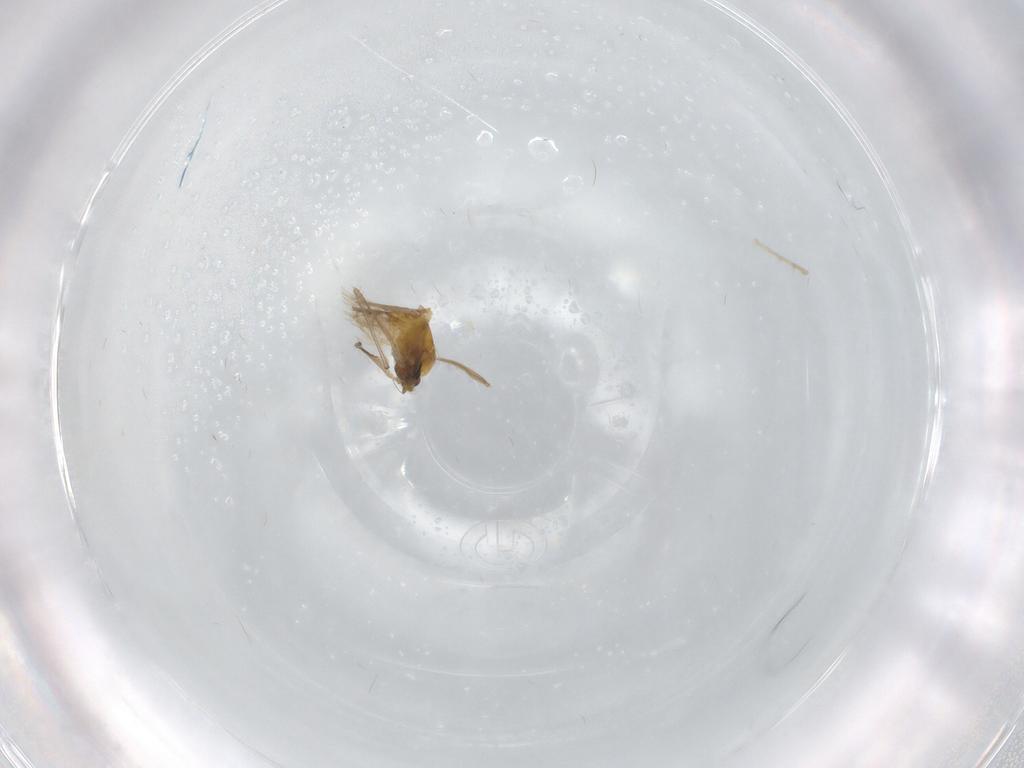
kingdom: Animalia
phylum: Arthropoda
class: Insecta
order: Diptera
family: Chironomidae
